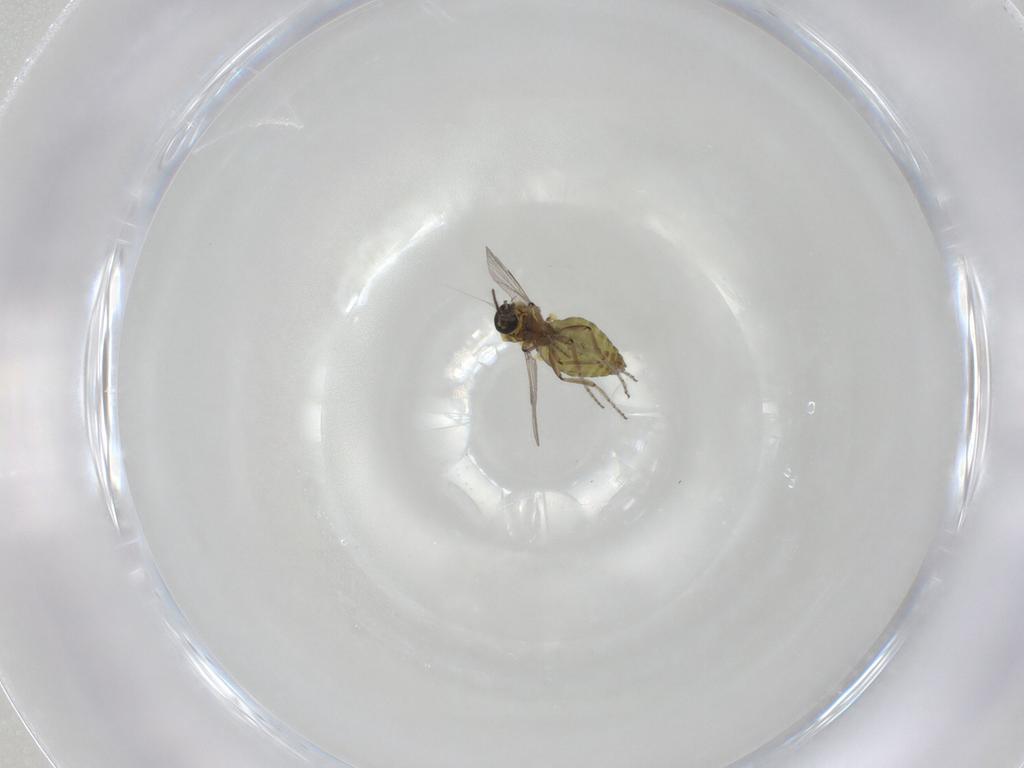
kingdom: Animalia
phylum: Arthropoda
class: Insecta
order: Diptera
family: Ceratopogonidae
